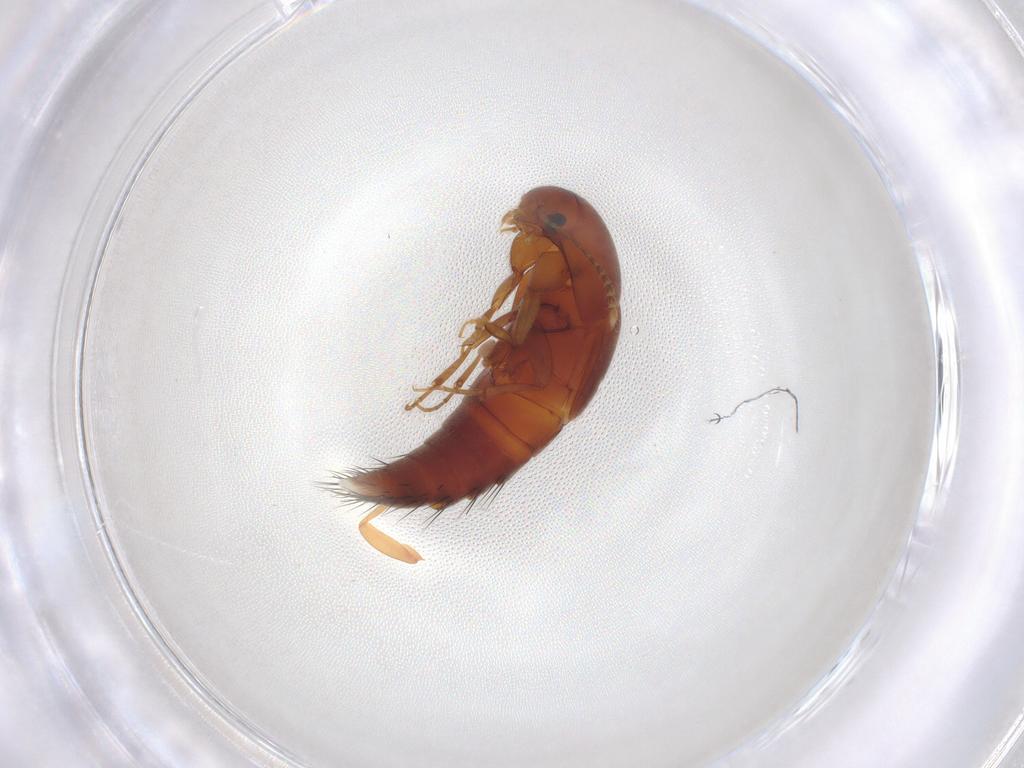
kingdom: Animalia
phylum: Arthropoda
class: Insecta
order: Coleoptera
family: Staphylinidae
